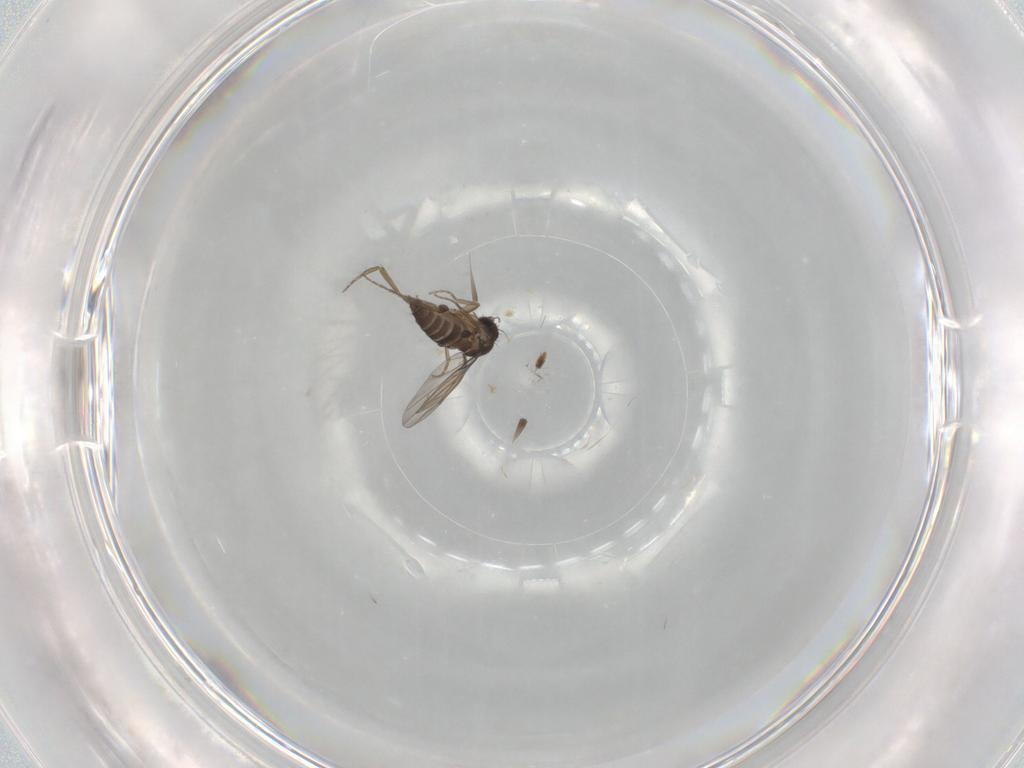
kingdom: Animalia
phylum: Arthropoda
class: Insecta
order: Diptera
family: Phoridae
